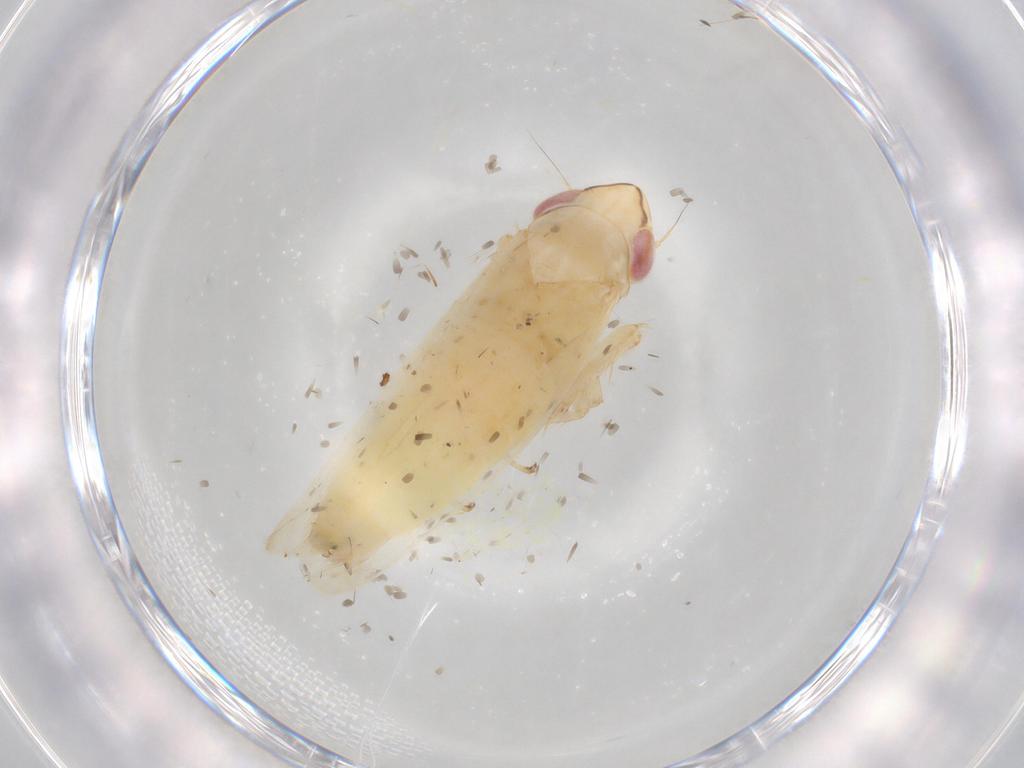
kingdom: Animalia
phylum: Arthropoda
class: Insecta
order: Hemiptera
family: Cicadellidae
